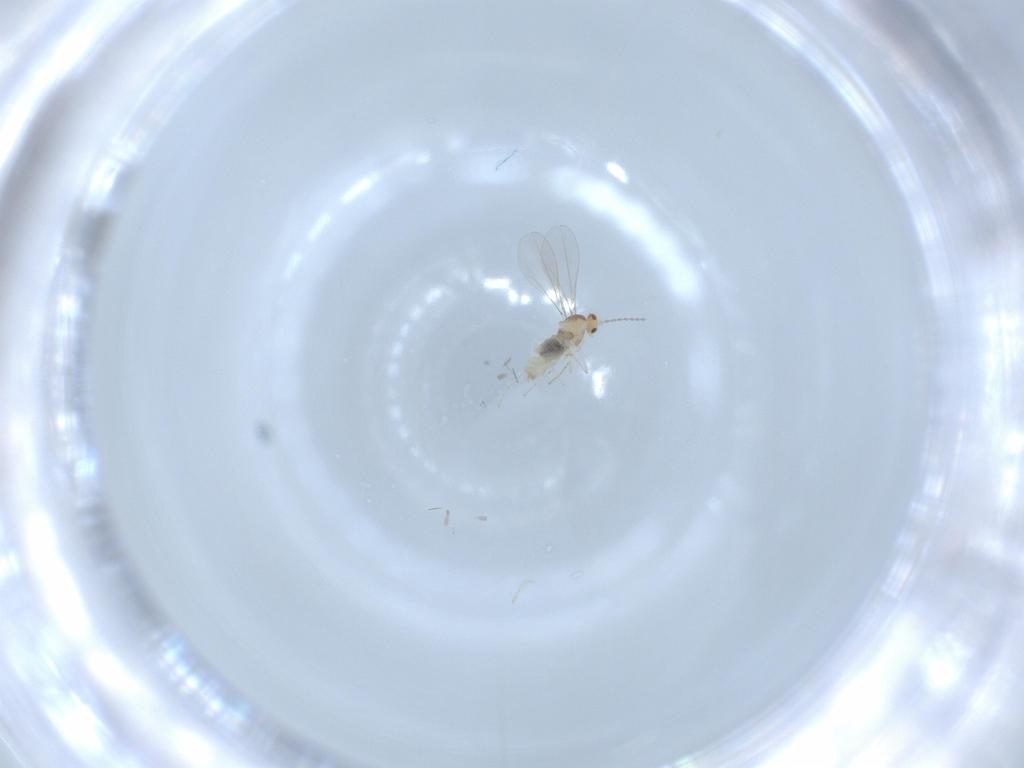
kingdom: Animalia
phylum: Arthropoda
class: Insecta
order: Diptera
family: Cecidomyiidae
